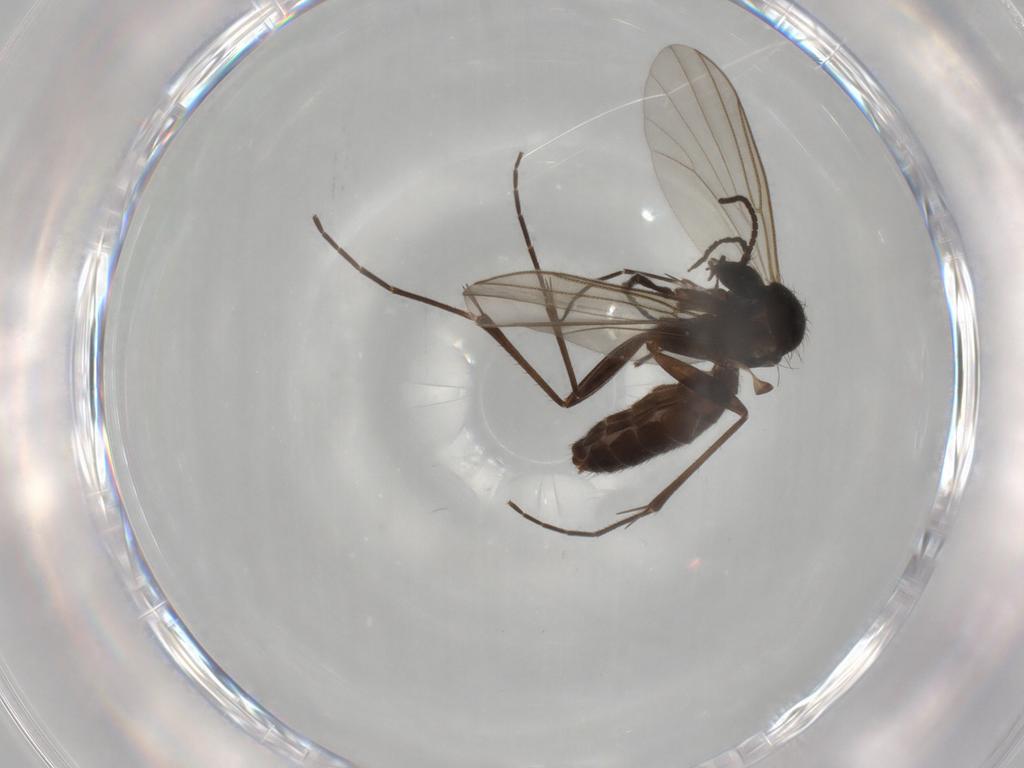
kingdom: Animalia
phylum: Arthropoda
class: Insecta
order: Diptera
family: Mycetophilidae
